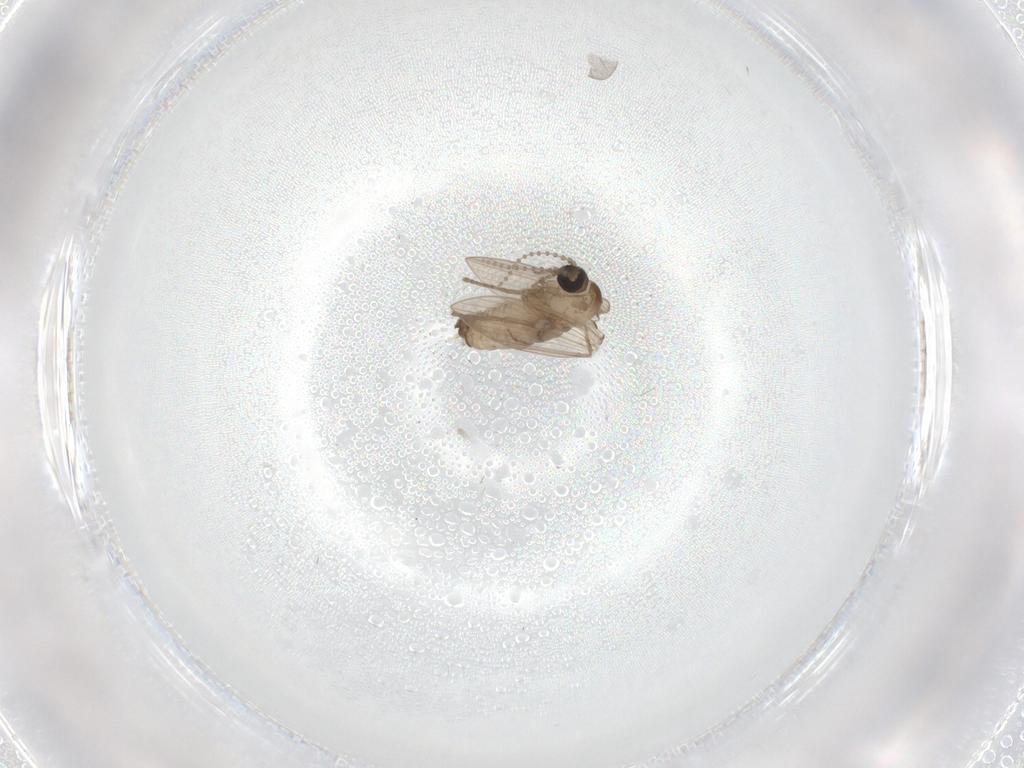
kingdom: Animalia
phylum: Arthropoda
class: Insecta
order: Diptera
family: Cecidomyiidae
